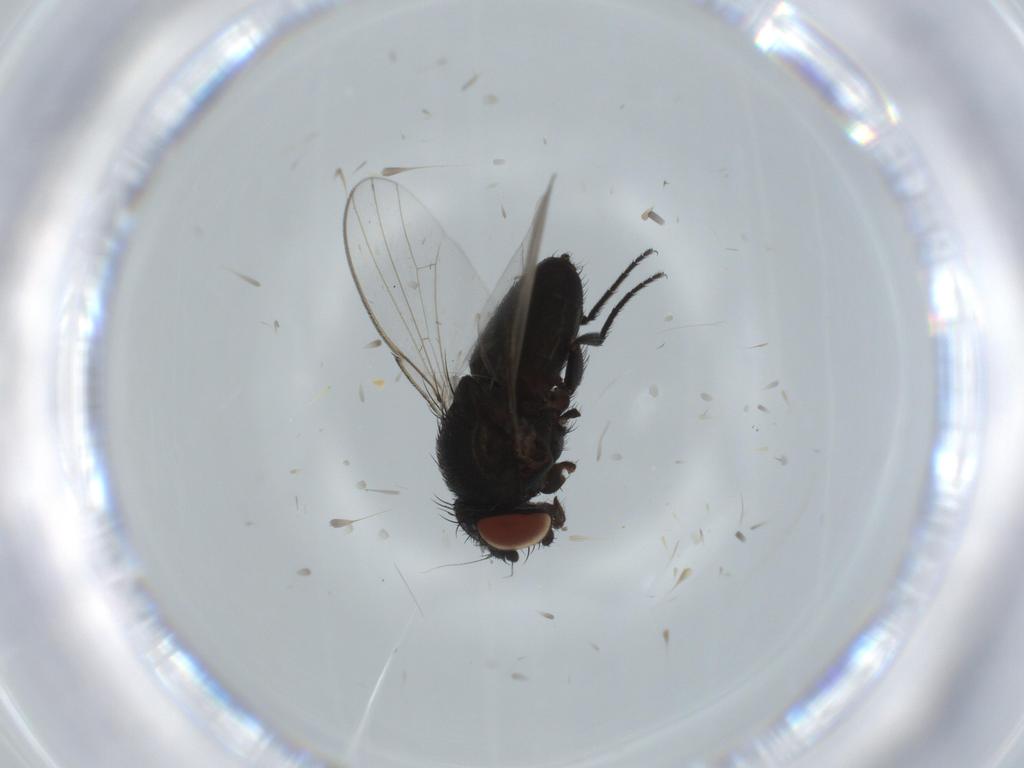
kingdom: Animalia
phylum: Arthropoda
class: Insecta
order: Diptera
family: Milichiidae
